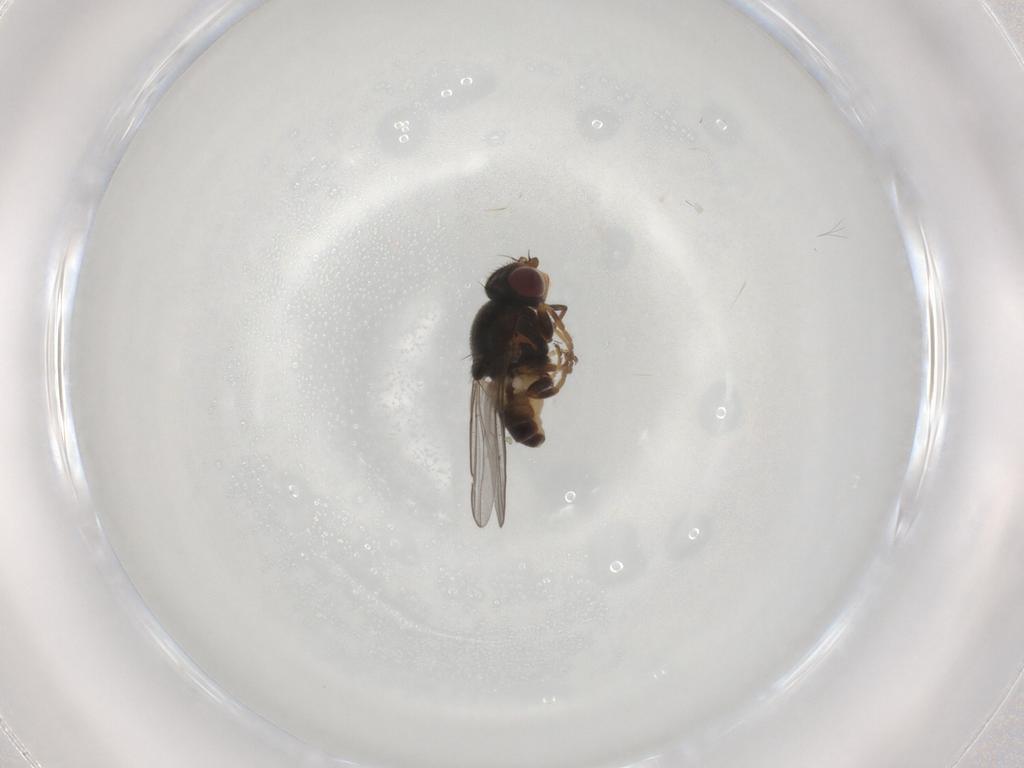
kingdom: Animalia
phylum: Arthropoda
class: Insecta
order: Diptera
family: Chloropidae
